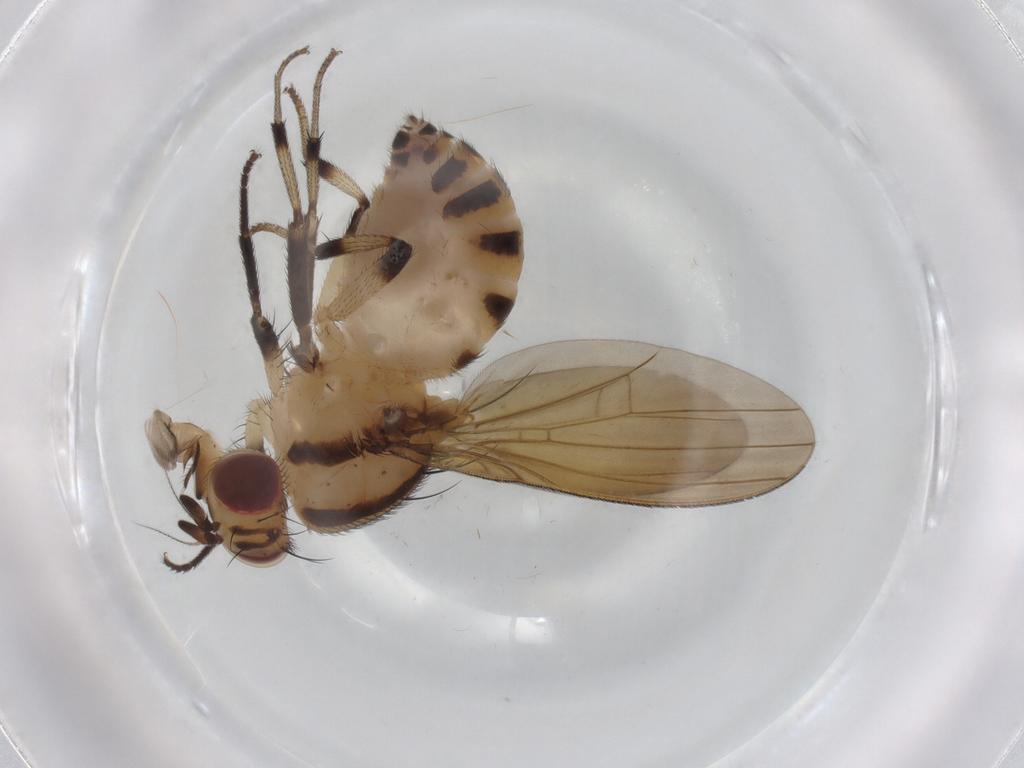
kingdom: Animalia
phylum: Arthropoda
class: Insecta
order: Diptera
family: Lauxaniidae
